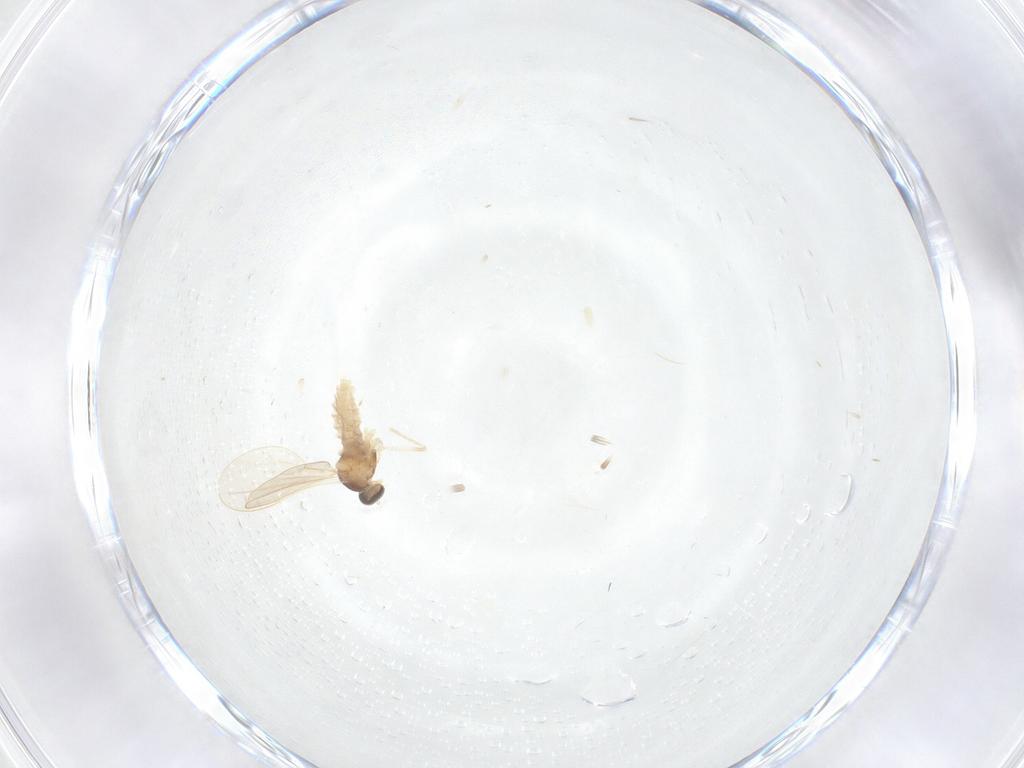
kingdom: Animalia
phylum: Arthropoda
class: Insecta
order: Diptera
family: Cecidomyiidae
